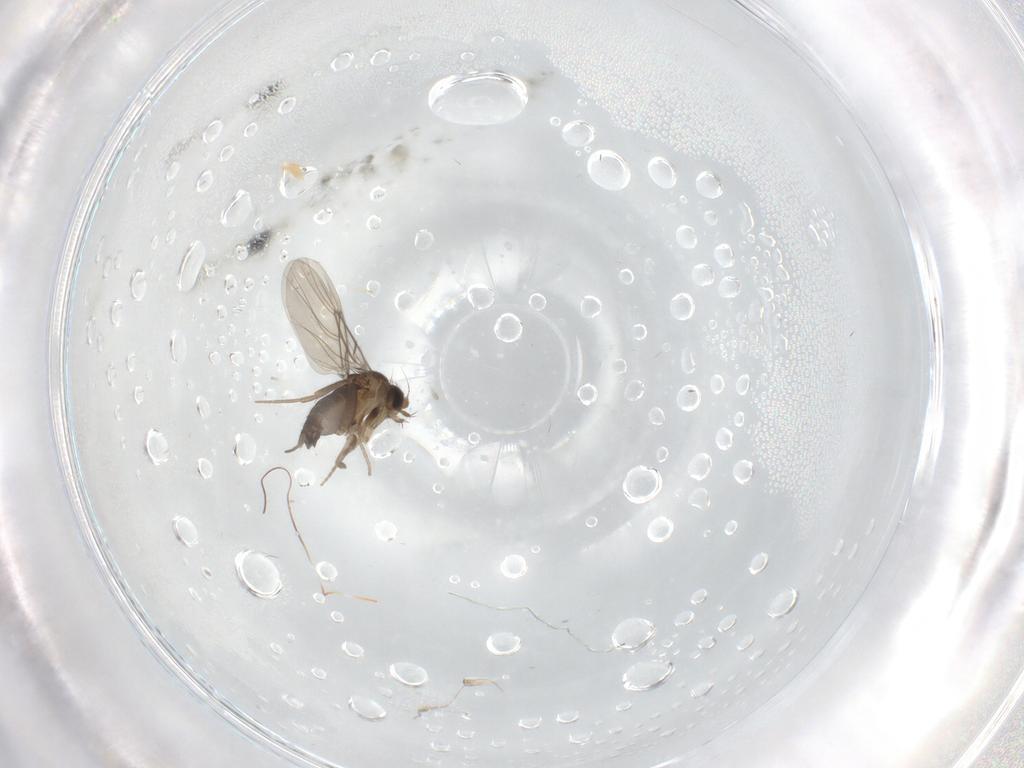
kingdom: Animalia
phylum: Arthropoda
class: Insecta
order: Diptera
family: Phoridae
